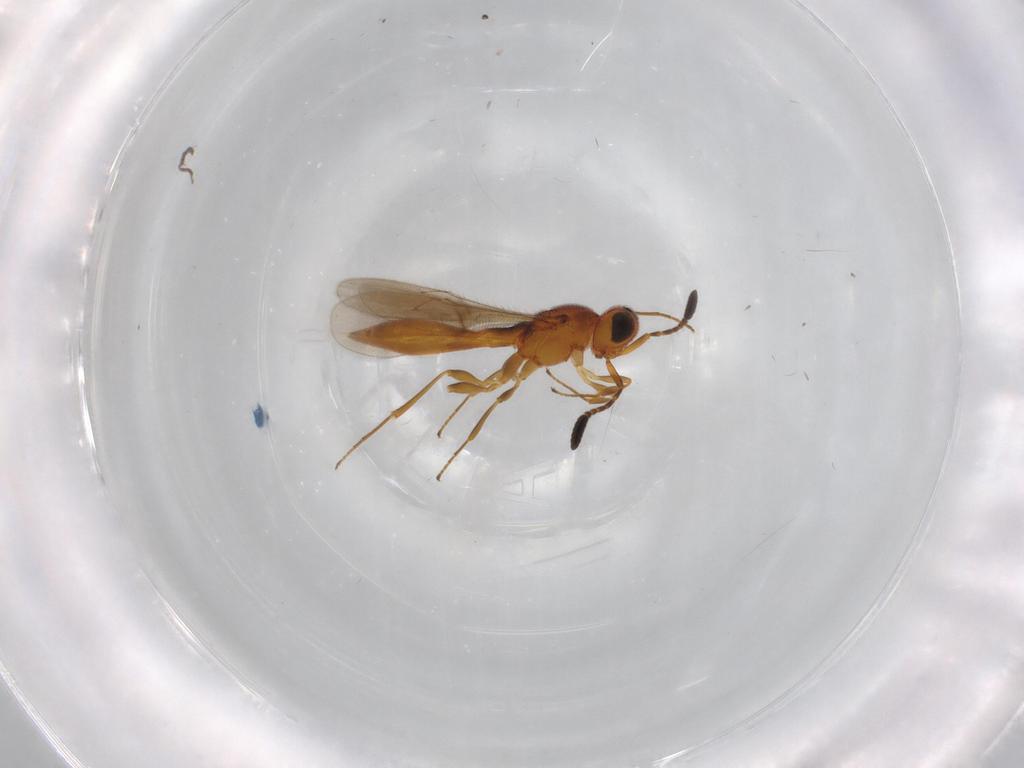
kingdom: Animalia
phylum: Arthropoda
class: Insecta
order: Hymenoptera
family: Scelionidae
